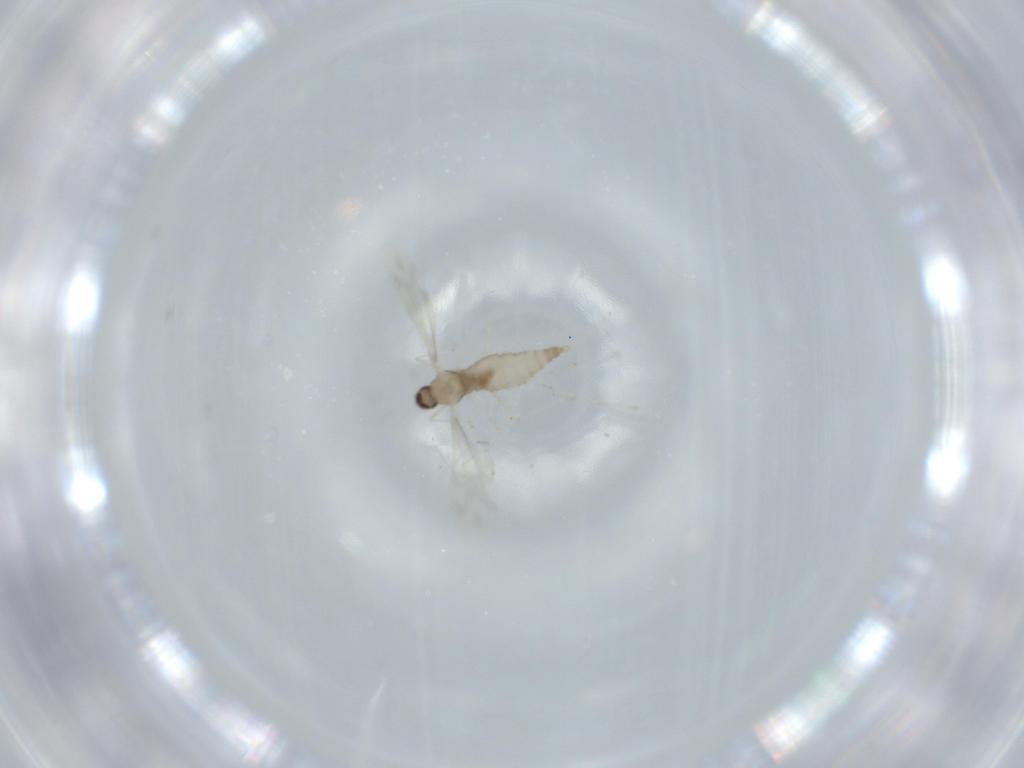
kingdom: Animalia
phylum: Arthropoda
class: Insecta
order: Diptera
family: Cecidomyiidae
